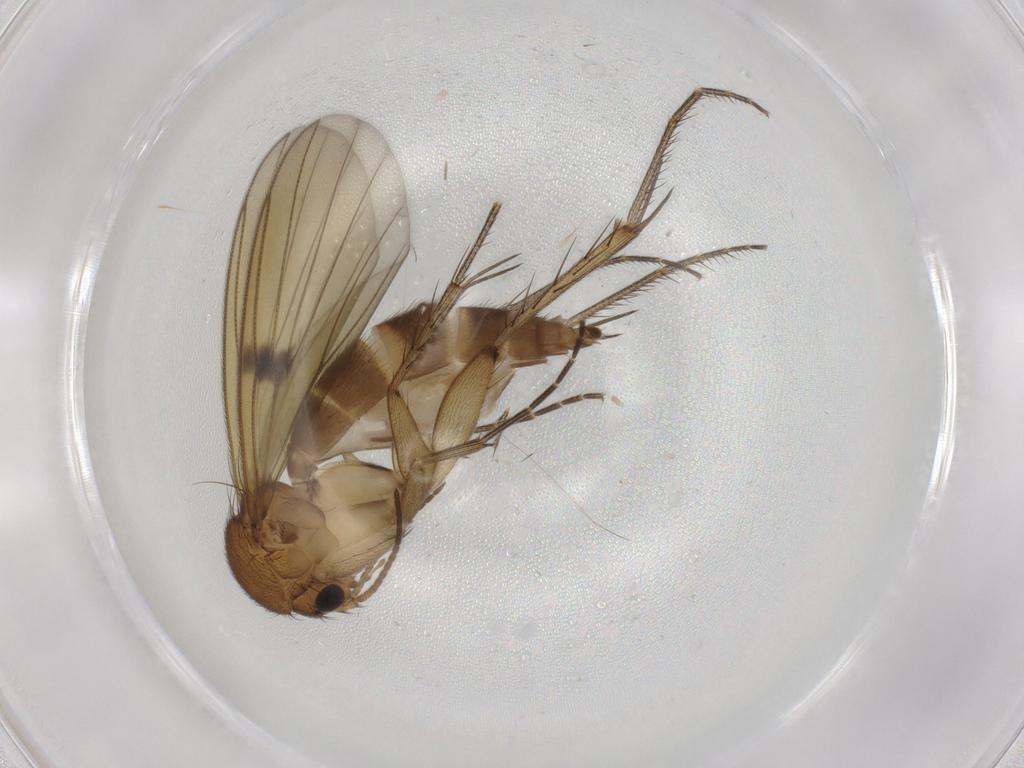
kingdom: Animalia
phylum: Arthropoda
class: Insecta
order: Diptera
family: Mycetophilidae
